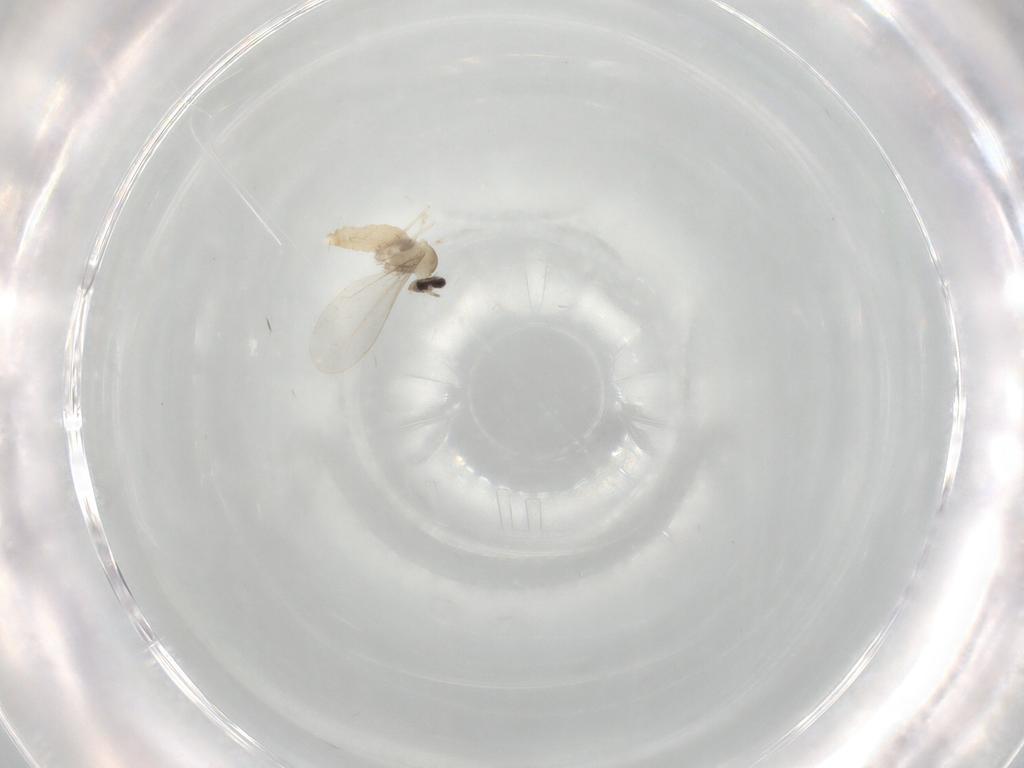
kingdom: Animalia
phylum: Arthropoda
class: Insecta
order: Diptera
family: Cecidomyiidae
